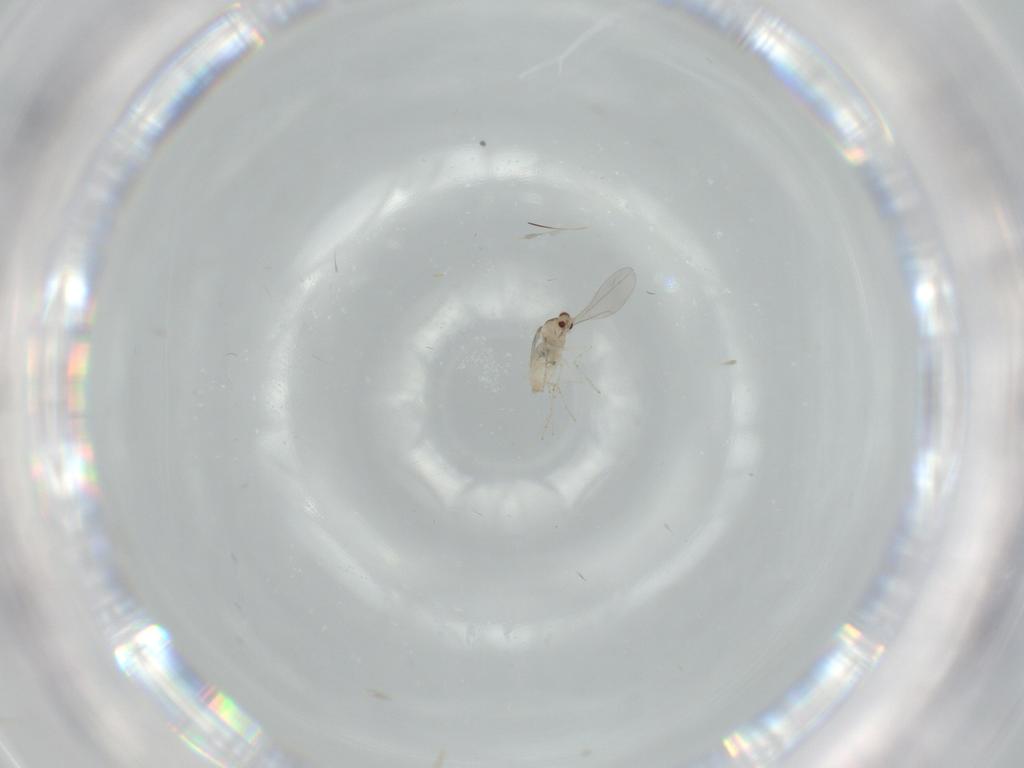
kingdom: Animalia
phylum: Arthropoda
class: Insecta
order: Diptera
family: Cecidomyiidae
